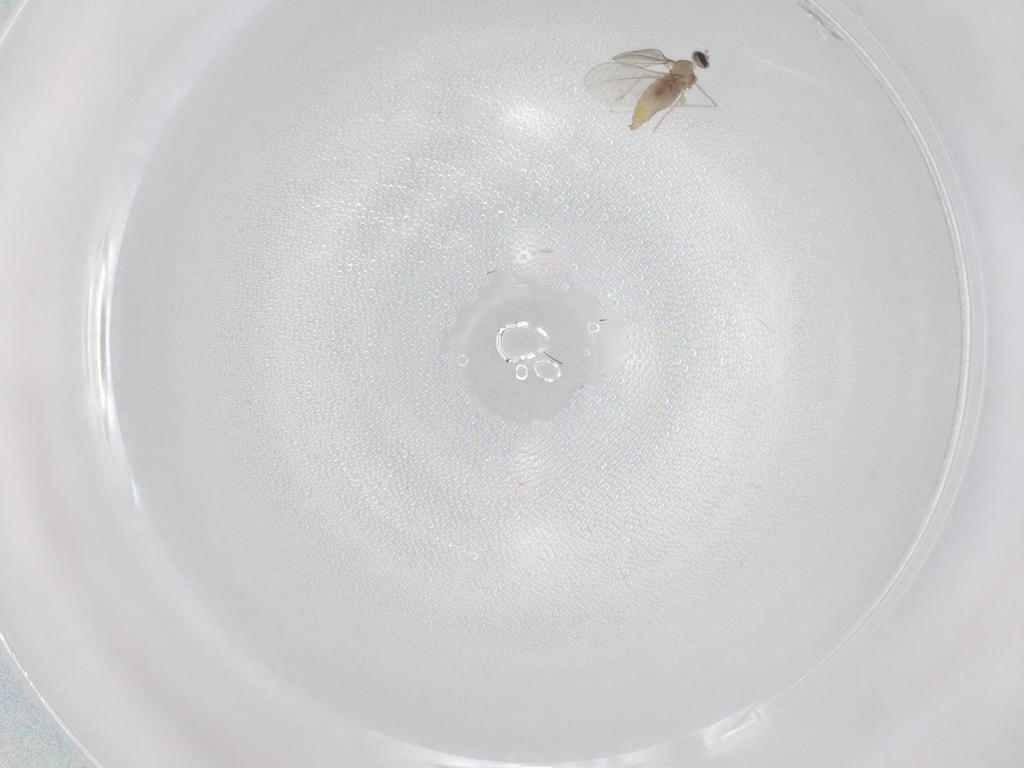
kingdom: Animalia
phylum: Arthropoda
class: Insecta
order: Diptera
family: Cecidomyiidae
